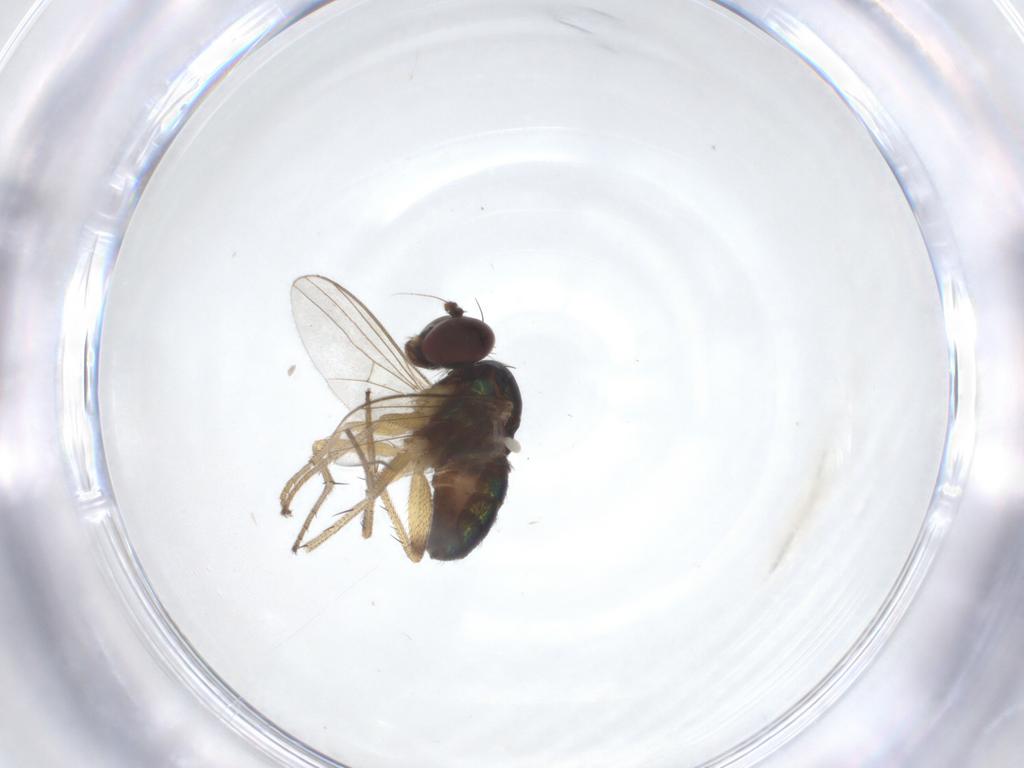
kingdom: Animalia
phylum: Arthropoda
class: Insecta
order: Diptera
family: Dolichopodidae
